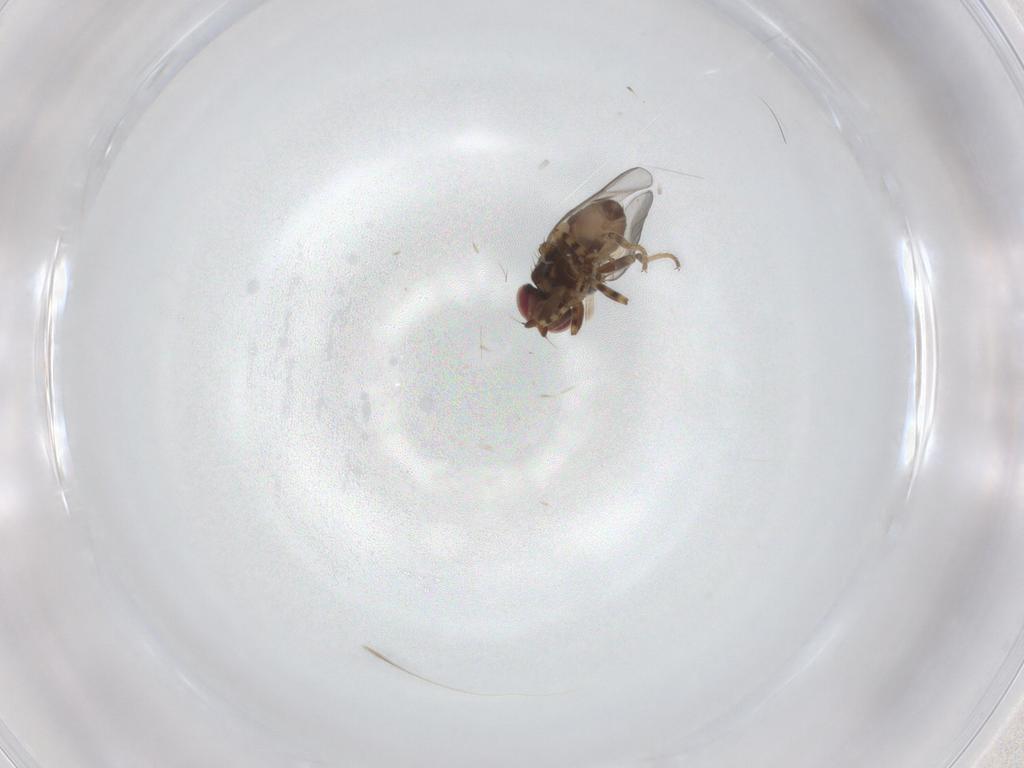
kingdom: Animalia
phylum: Arthropoda
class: Insecta
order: Diptera
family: Chloropidae
